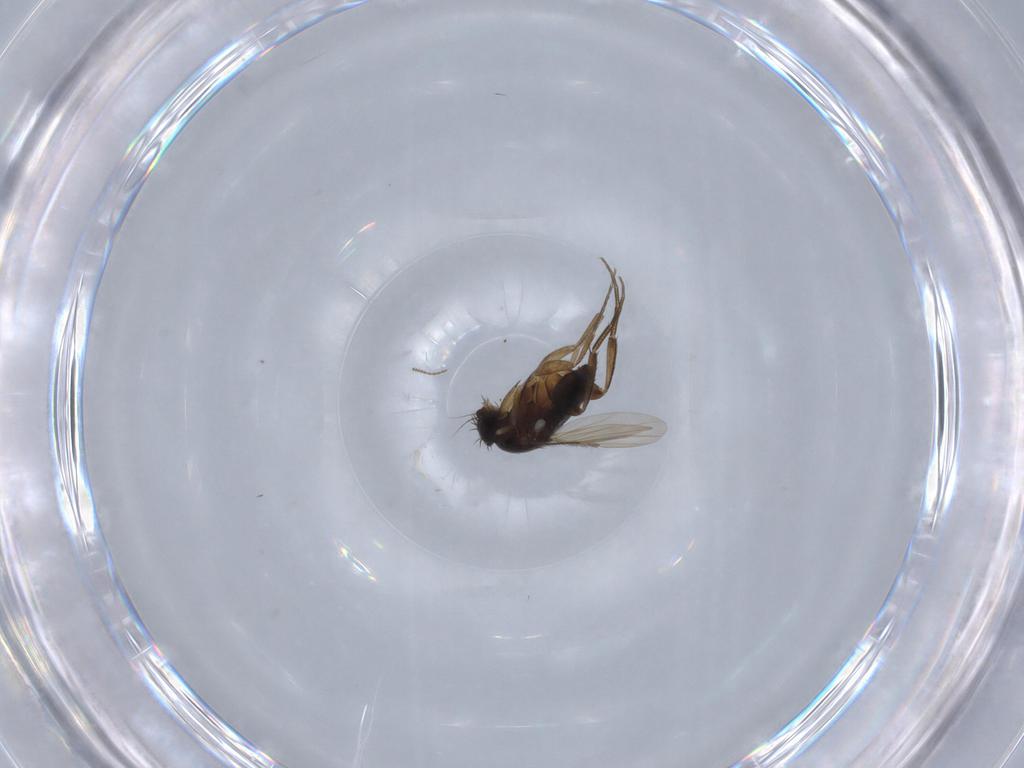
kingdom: Animalia
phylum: Arthropoda
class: Insecta
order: Diptera
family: Phoridae
